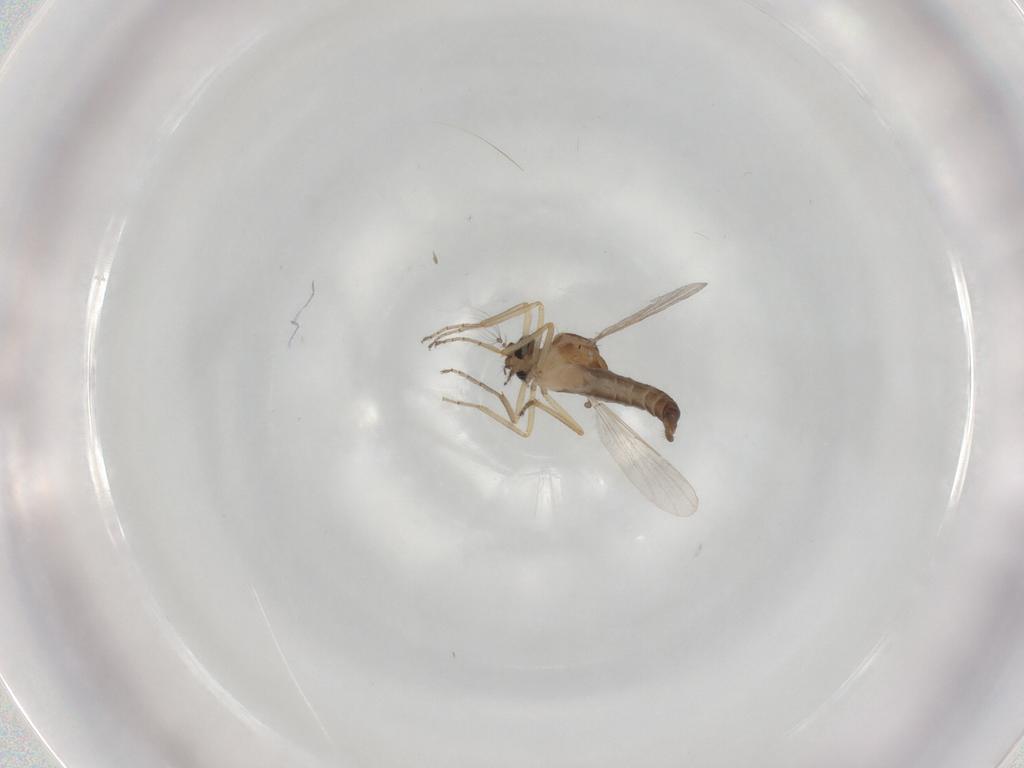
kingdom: Animalia
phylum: Arthropoda
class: Insecta
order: Diptera
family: Ceratopogonidae
